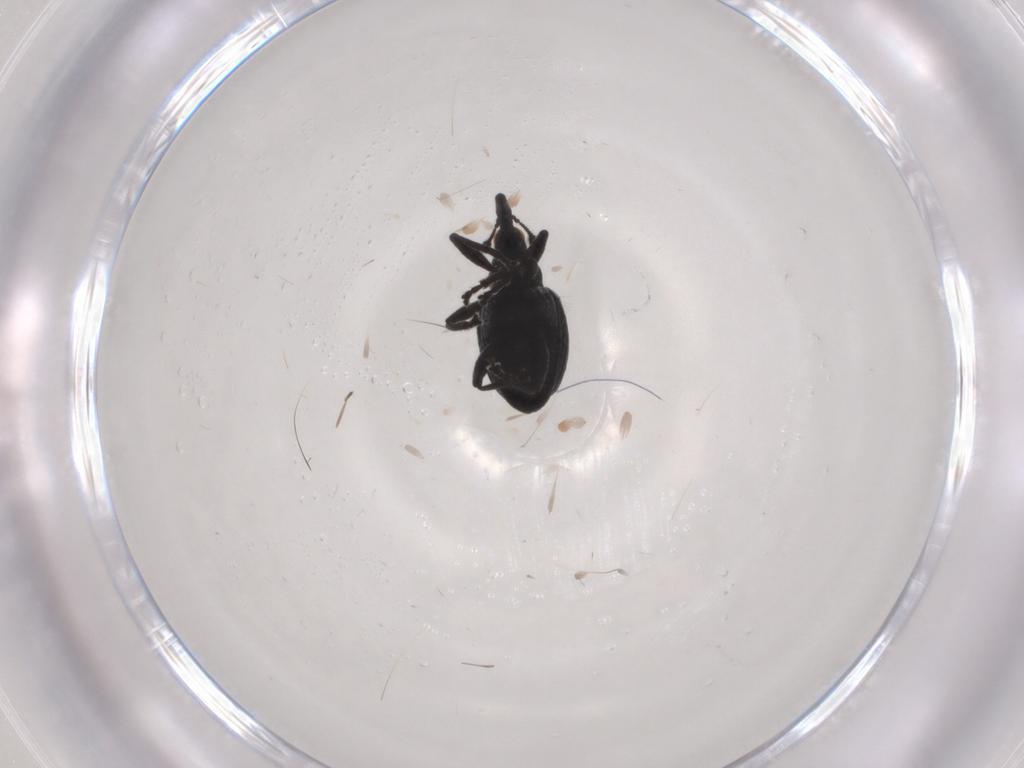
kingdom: Animalia
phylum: Arthropoda
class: Insecta
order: Coleoptera
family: Brentidae
